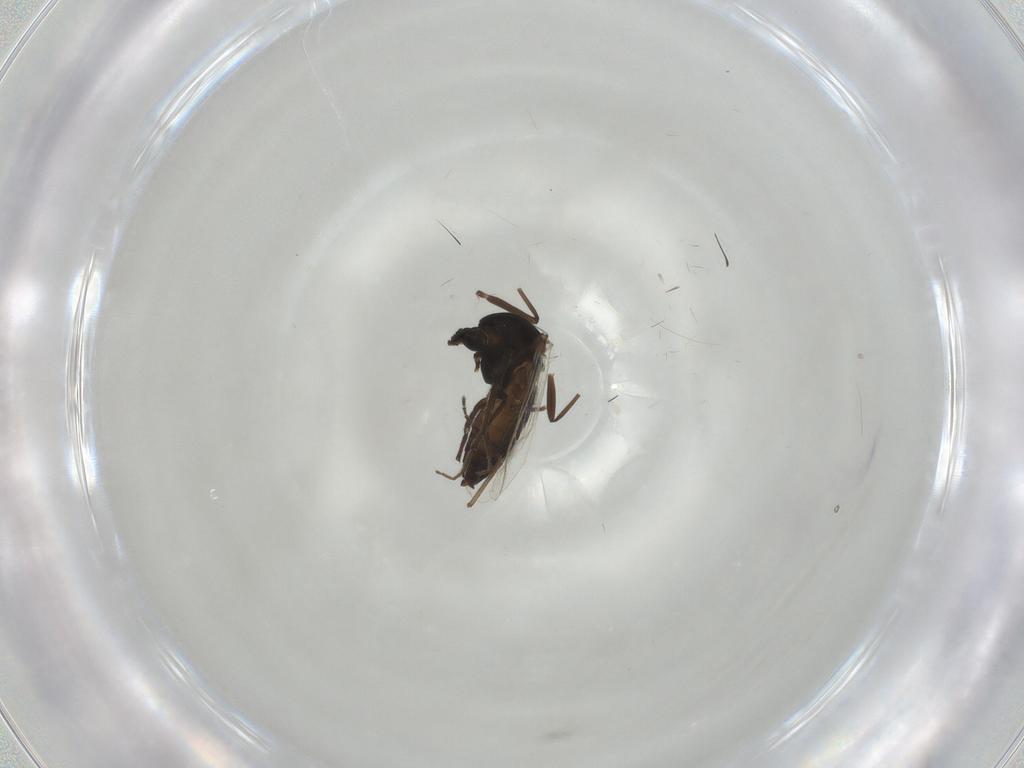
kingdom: Animalia
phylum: Arthropoda
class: Insecta
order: Diptera
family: Chironomidae
